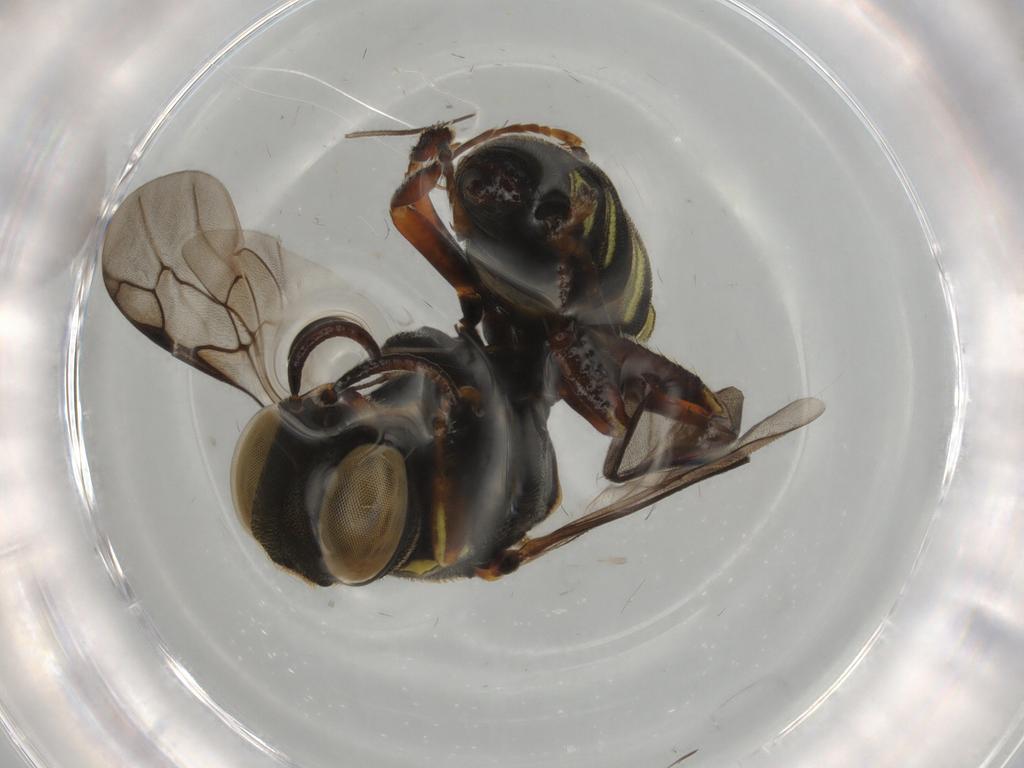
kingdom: Animalia
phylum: Arthropoda
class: Insecta
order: Hymenoptera
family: Crabronidae
